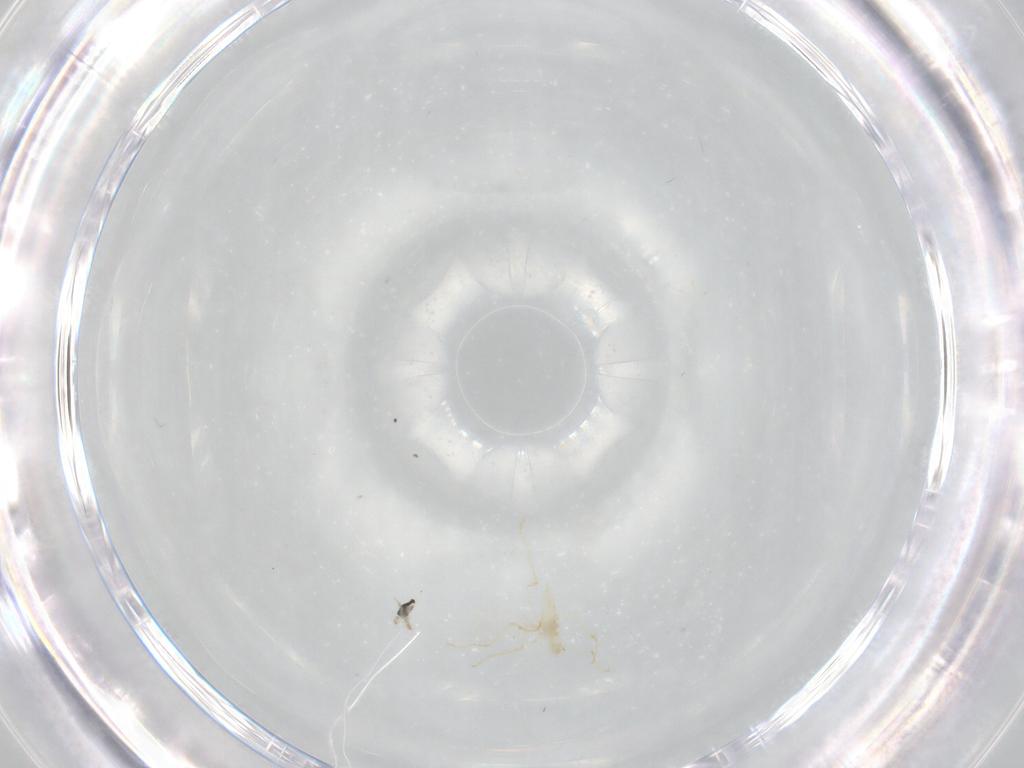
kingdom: Animalia
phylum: Arthropoda
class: Insecta
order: Diptera
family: Cecidomyiidae
